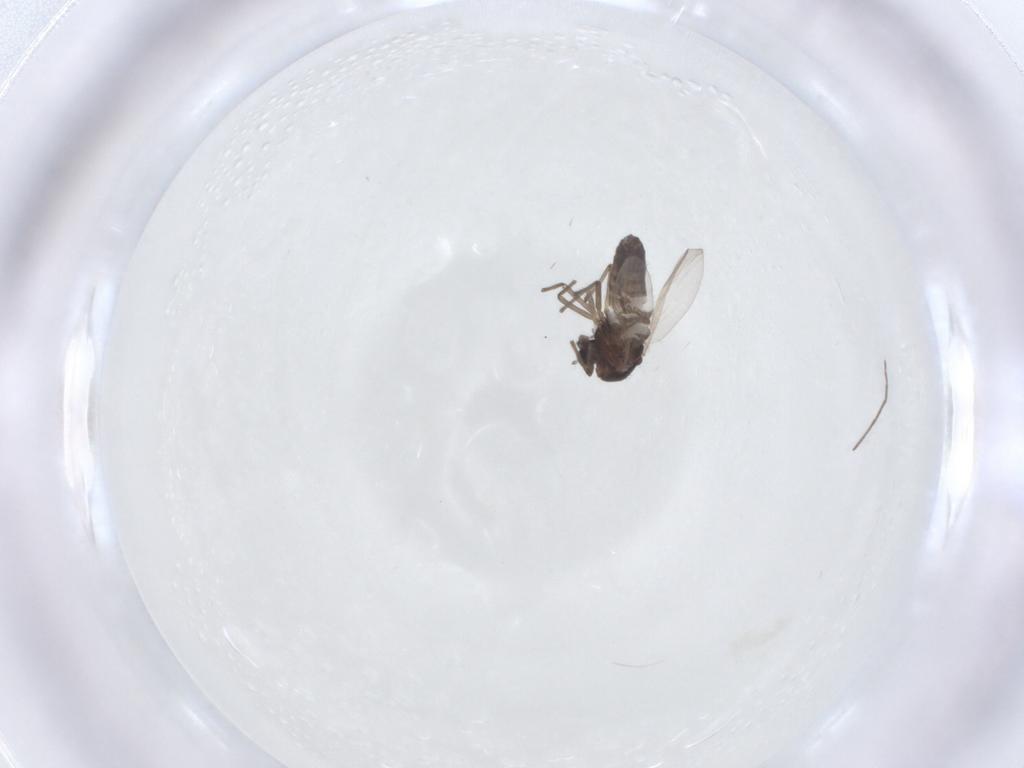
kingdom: Animalia
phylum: Arthropoda
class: Insecta
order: Diptera
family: Chironomidae
